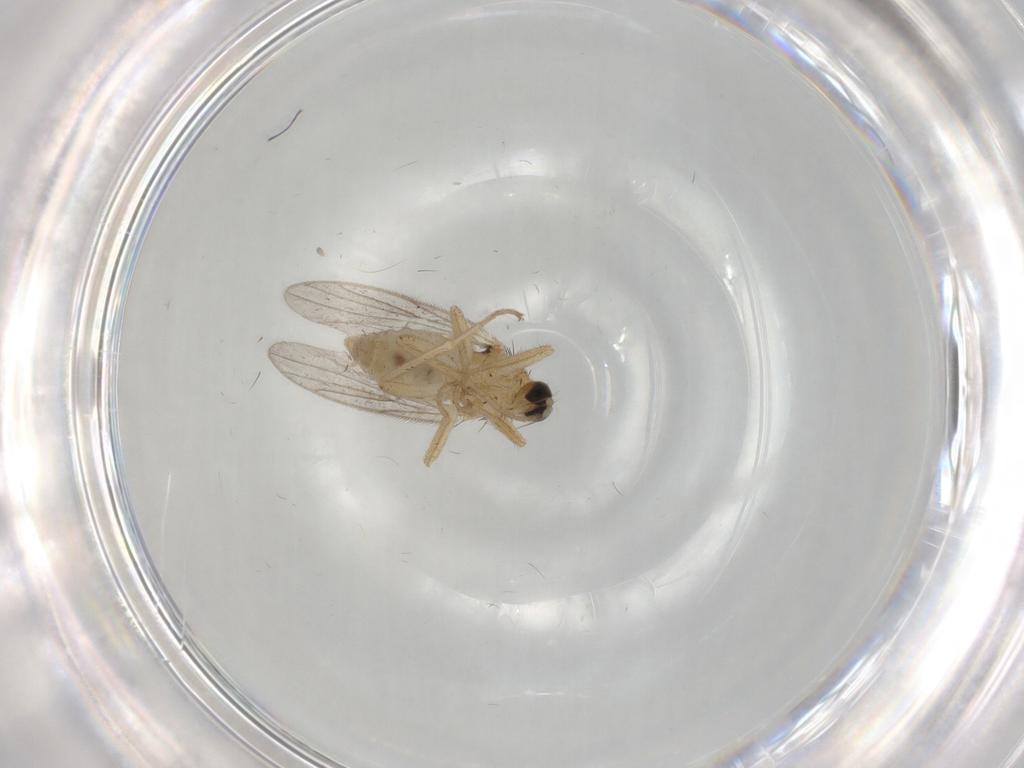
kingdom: Animalia
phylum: Arthropoda
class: Insecta
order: Diptera
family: Hybotidae
